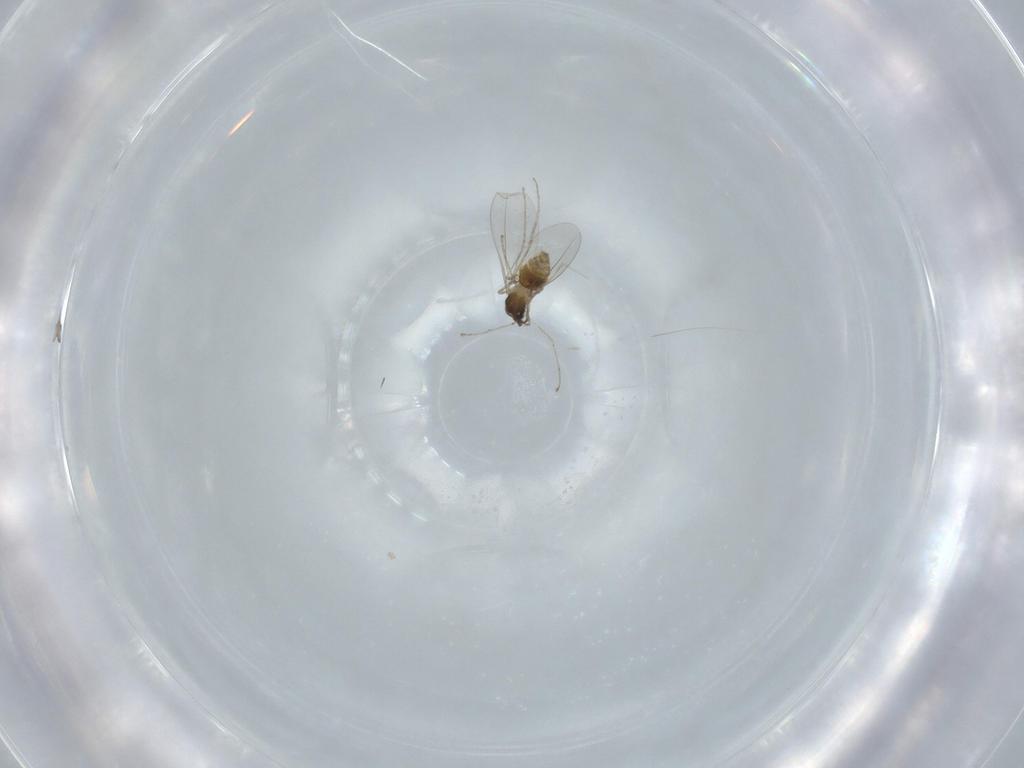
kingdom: Animalia
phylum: Arthropoda
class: Insecta
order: Diptera
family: Cecidomyiidae
